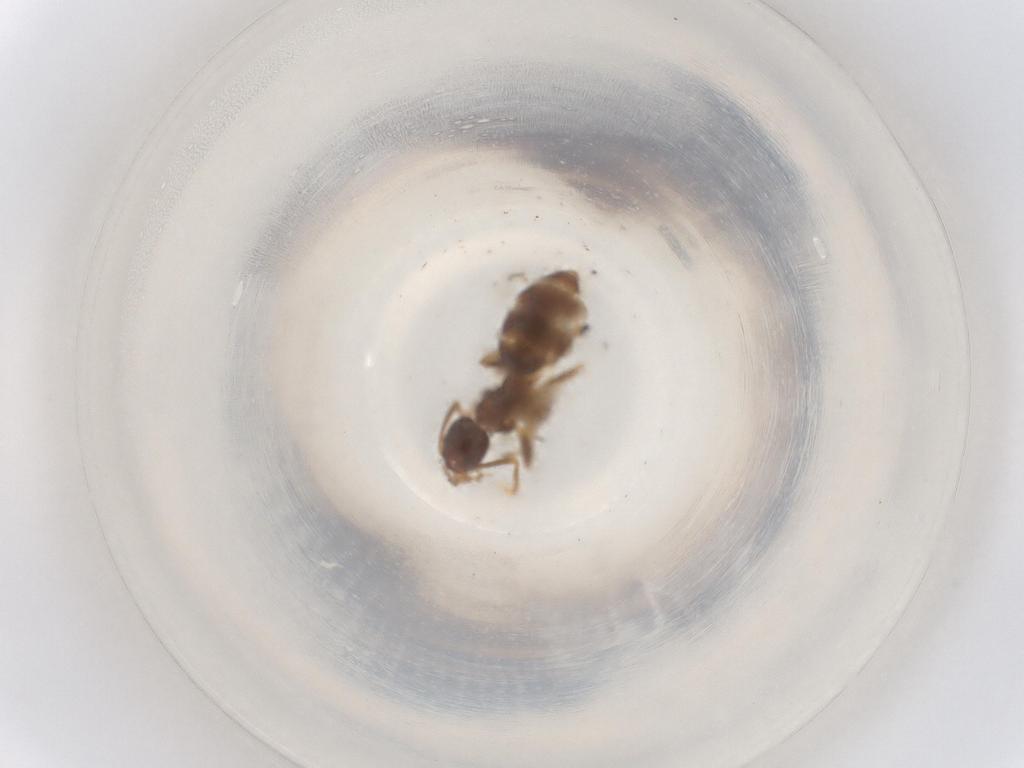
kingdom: Animalia
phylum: Arthropoda
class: Insecta
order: Hymenoptera
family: Formicidae
